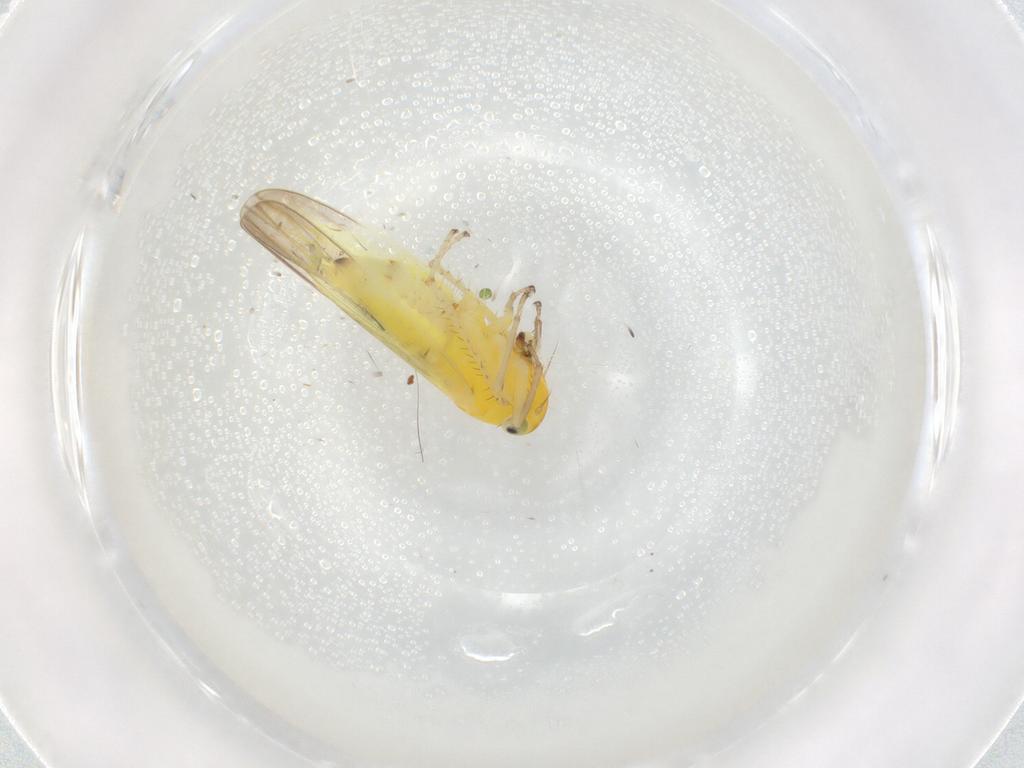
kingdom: Animalia
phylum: Arthropoda
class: Insecta
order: Hemiptera
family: Cicadellidae
